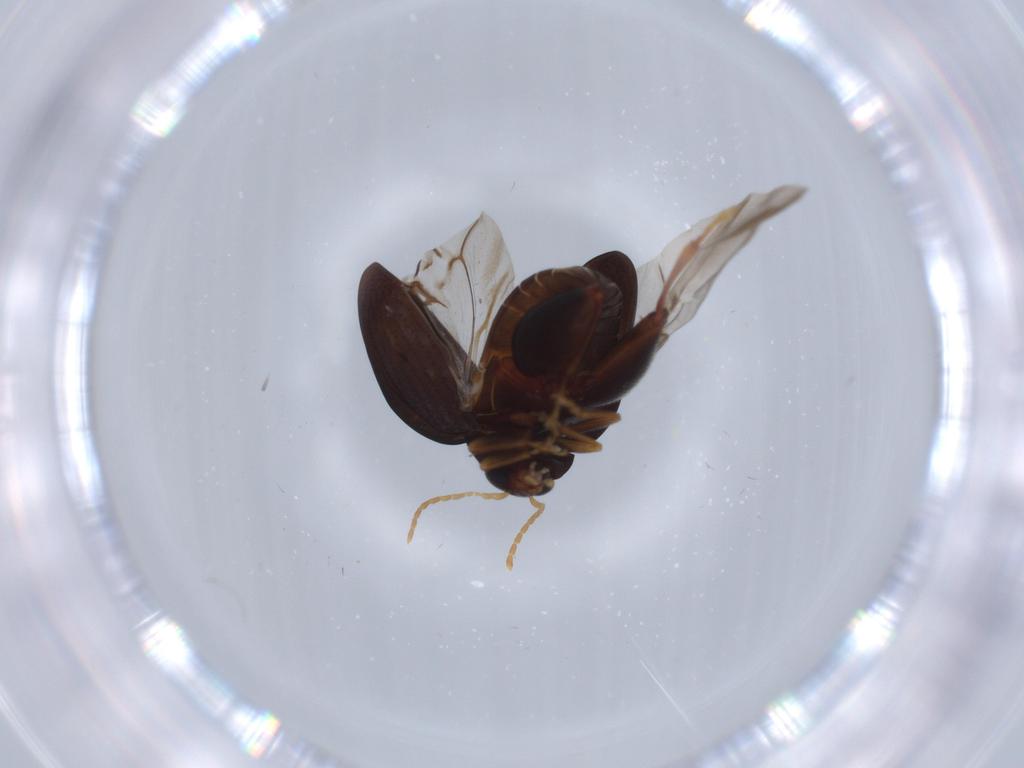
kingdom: Animalia
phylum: Arthropoda
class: Insecta
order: Coleoptera
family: Chrysomelidae
